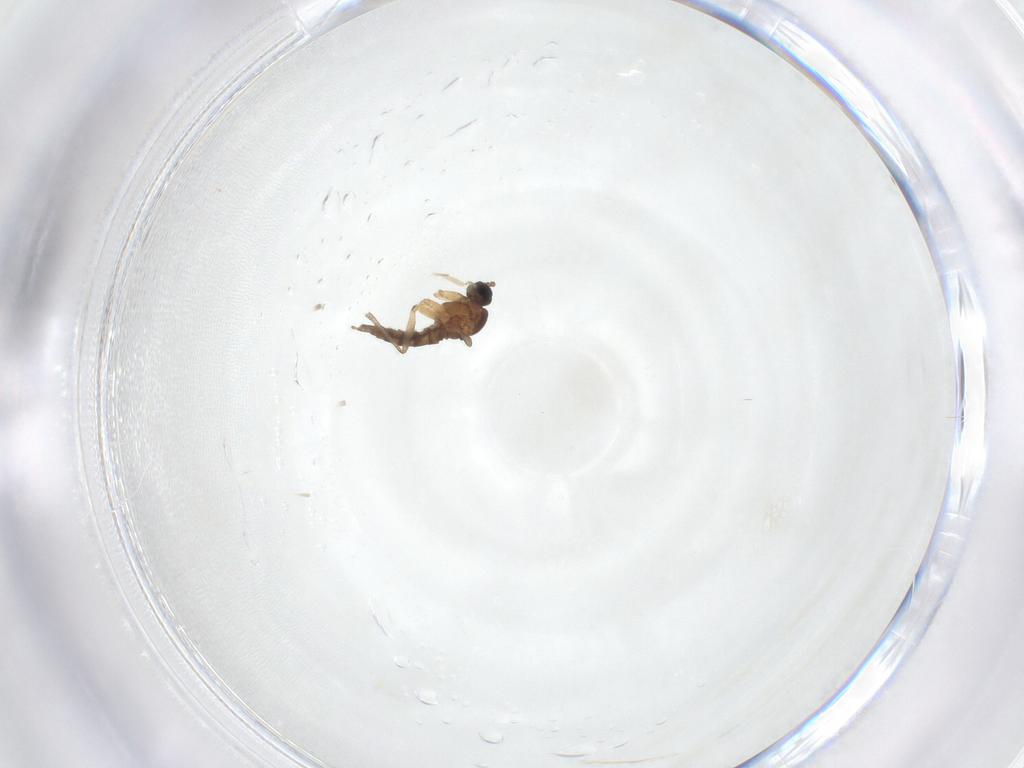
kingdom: Animalia
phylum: Arthropoda
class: Insecta
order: Diptera
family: Sciaridae
